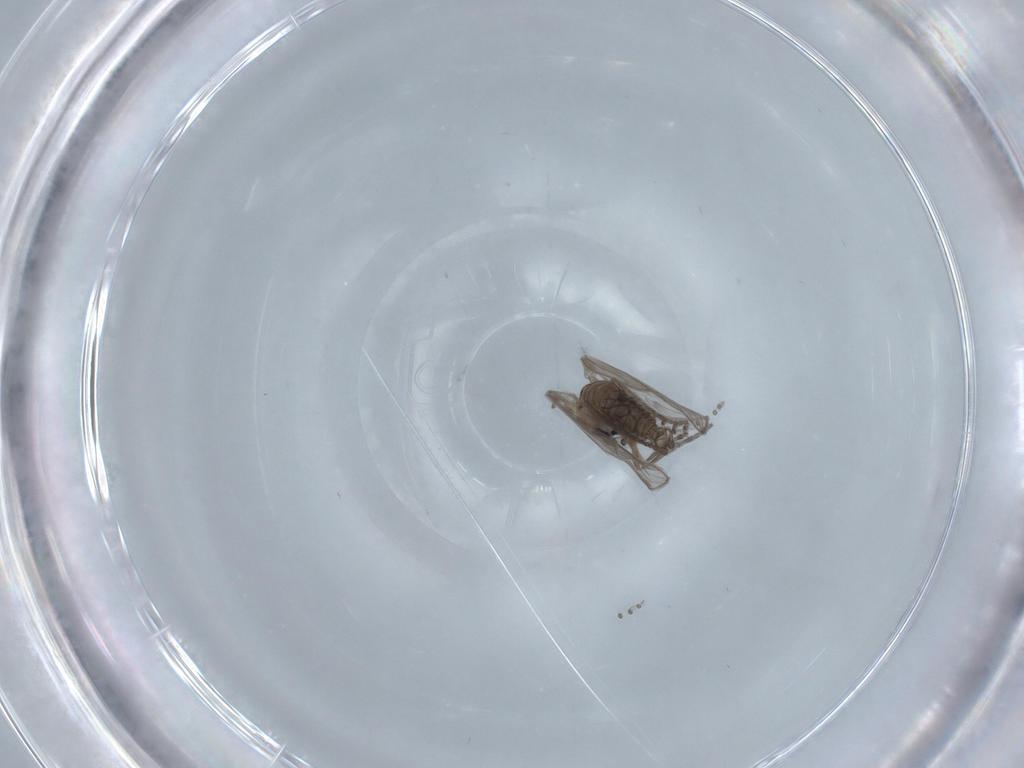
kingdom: Animalia
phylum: Arthropoda
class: Insecta
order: Diptera
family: Psychodidae
